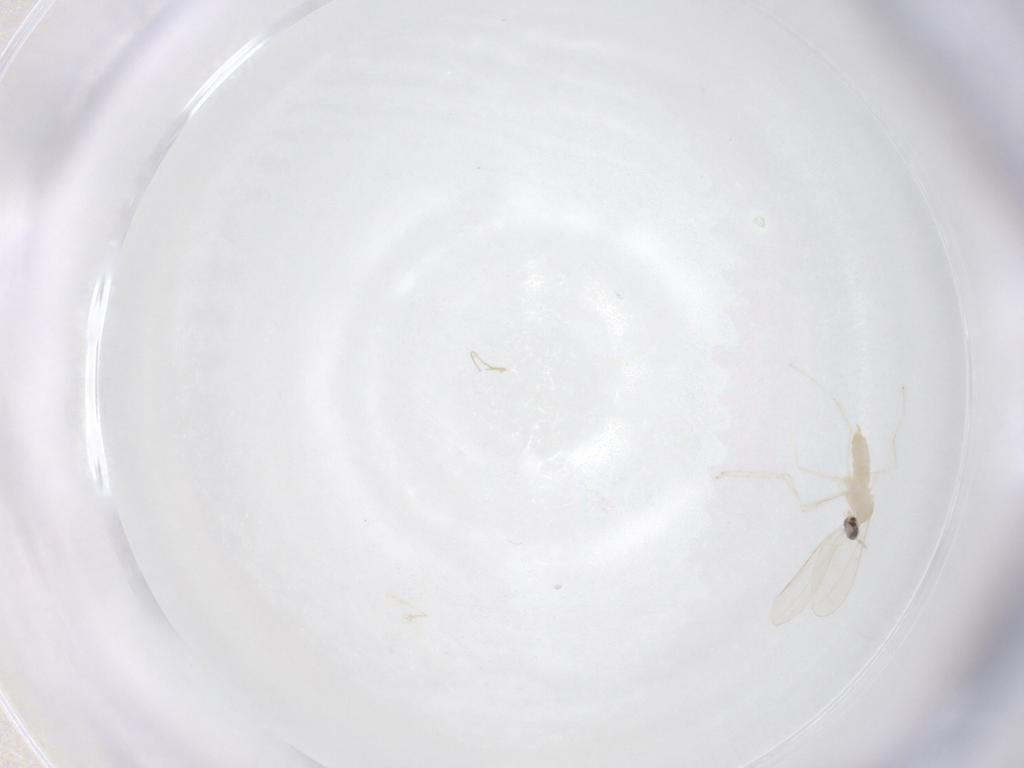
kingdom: Animalia
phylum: Arthropoda
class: Insecta
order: Diptera
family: Cecidomyiidae
